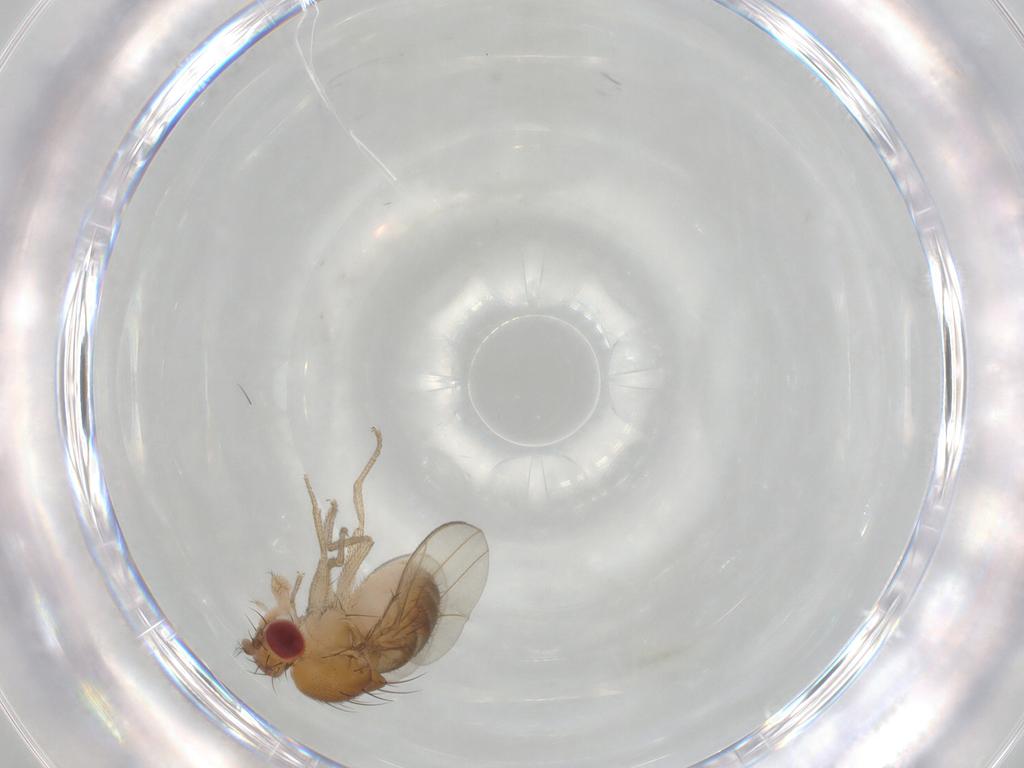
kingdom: Animalia
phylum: Arthropoda
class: Insecta
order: Diptera
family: Drosophilidae
